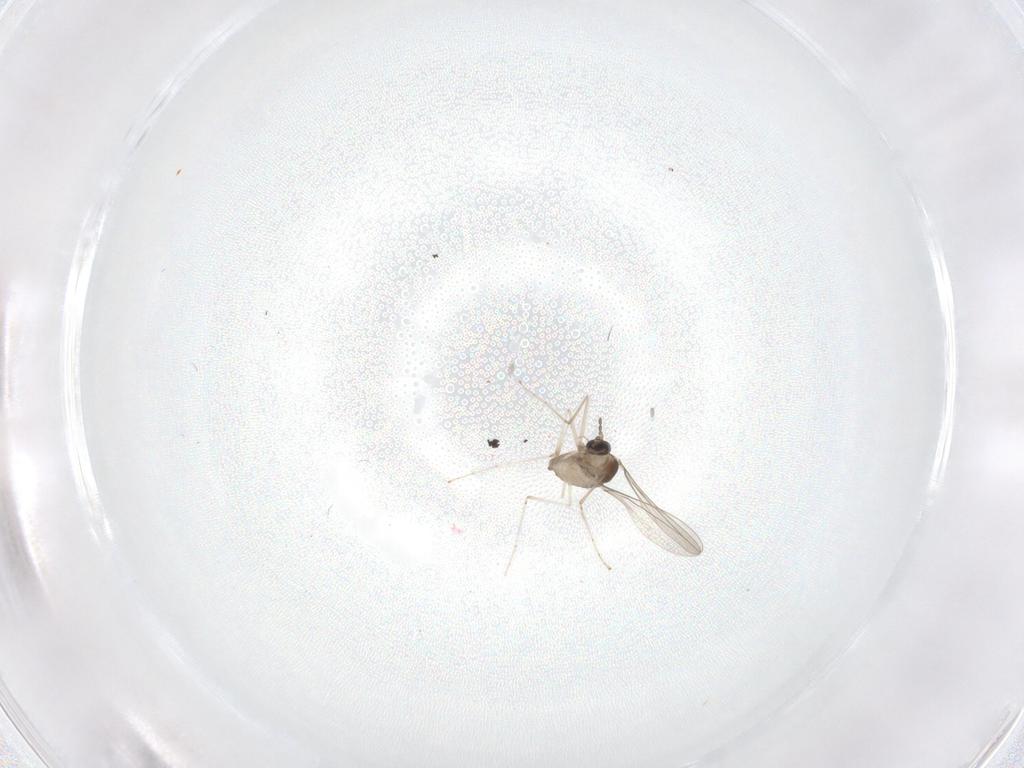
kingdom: Animalia
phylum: Arthropoda
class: Insecta
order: Diptera
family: Cecidomyiidae
